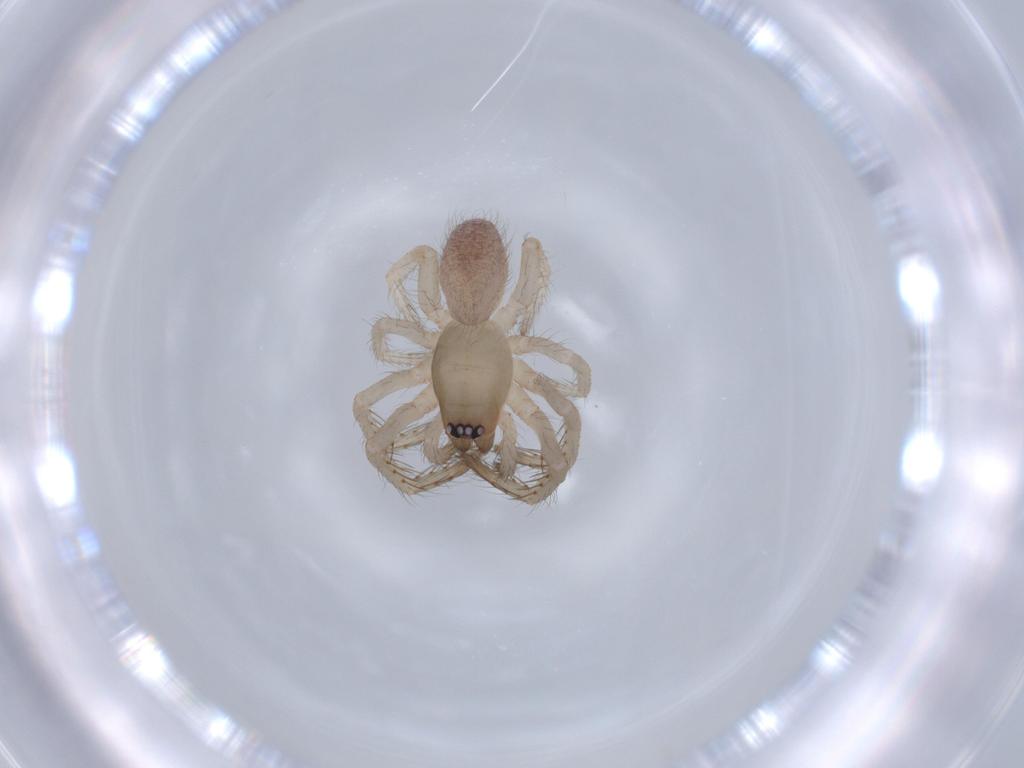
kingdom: Animalia
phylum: Arthropoda
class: Arachnida
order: Araneae
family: Segestriidae
